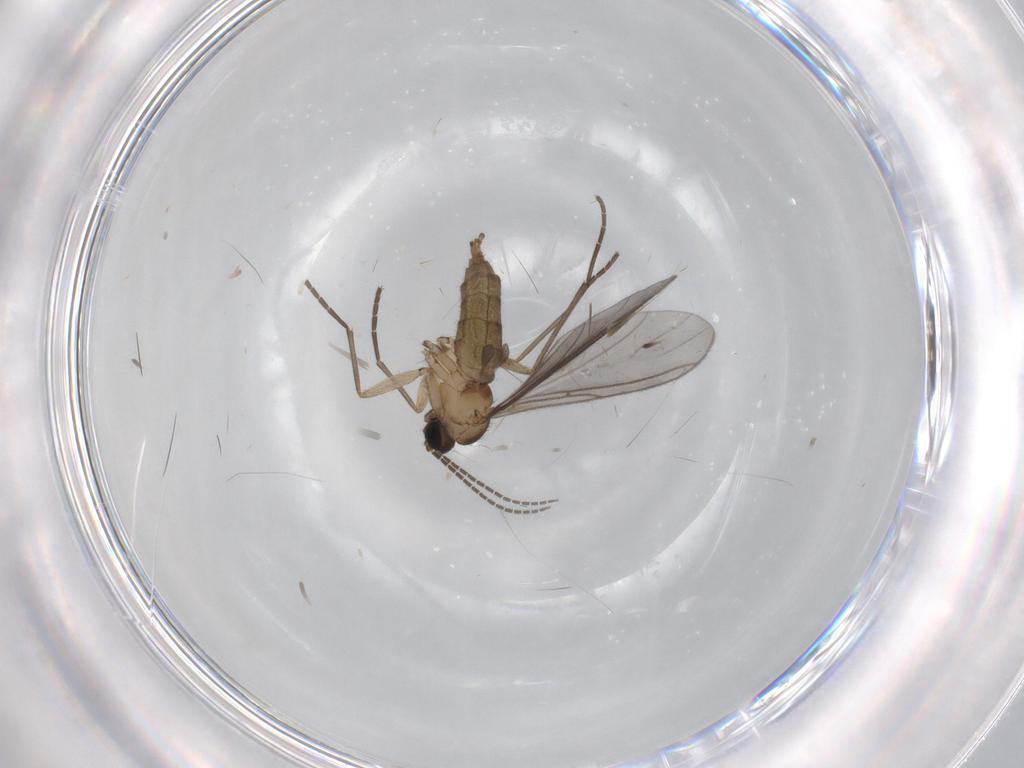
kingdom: Animalia
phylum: Arthropoda
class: Insecta
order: Diptera
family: Sciaridae
